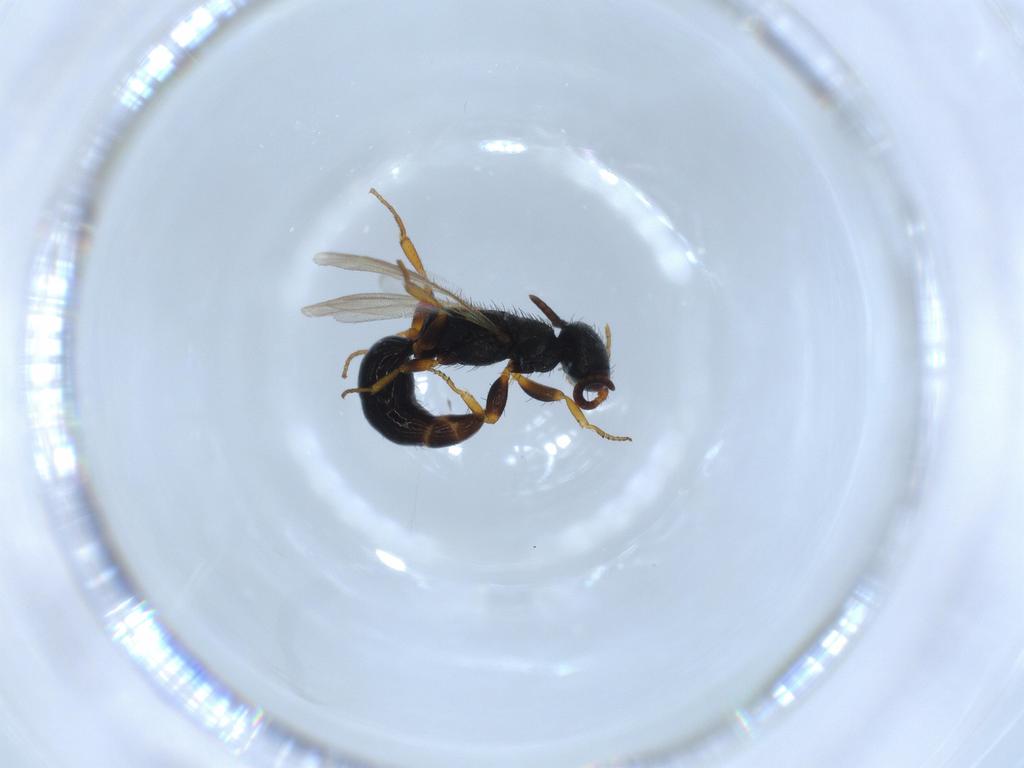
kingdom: Animalia
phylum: Arthropoda
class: Insecta
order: Hymenoptera
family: Bethylidae
